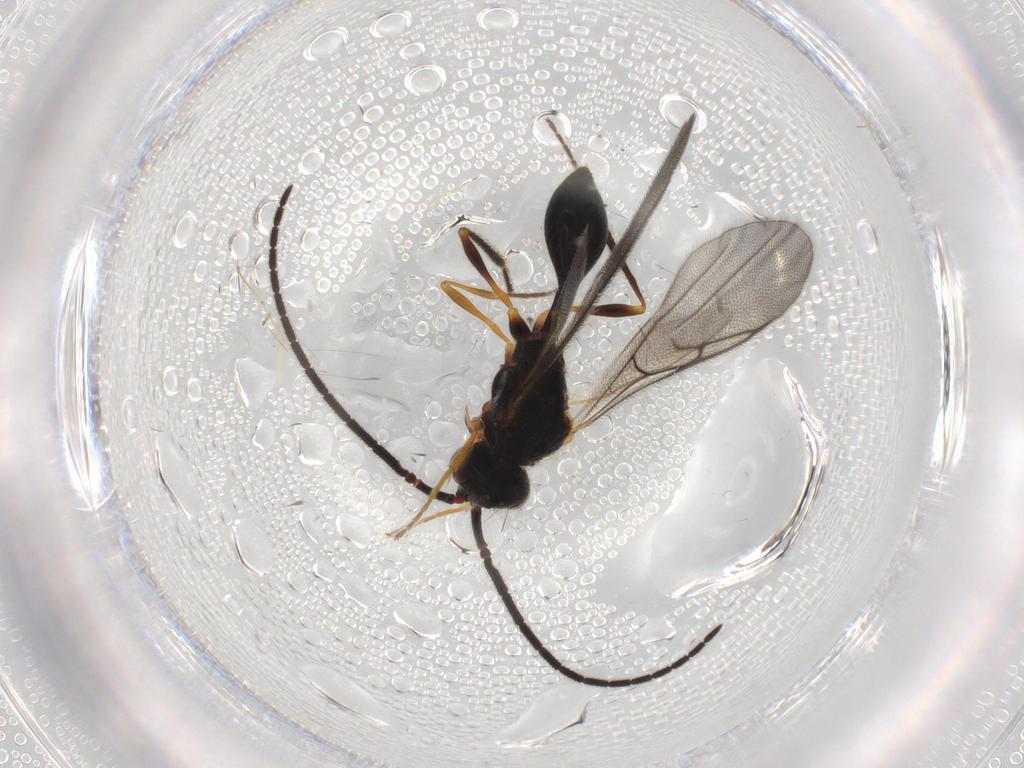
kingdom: Animalia
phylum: Arthropoda
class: Insecta
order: Hymenoptera
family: Diapriidae
